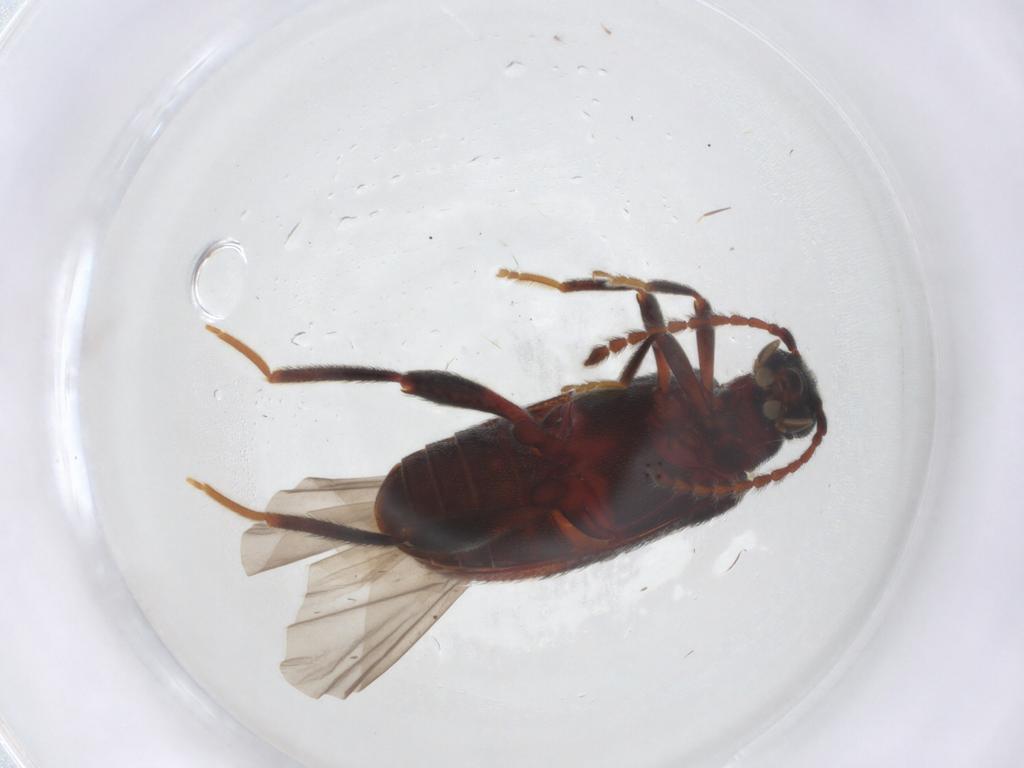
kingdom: Animalia
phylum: Arthropoda
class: Insecta
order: Coleoptera
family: Aderidae
